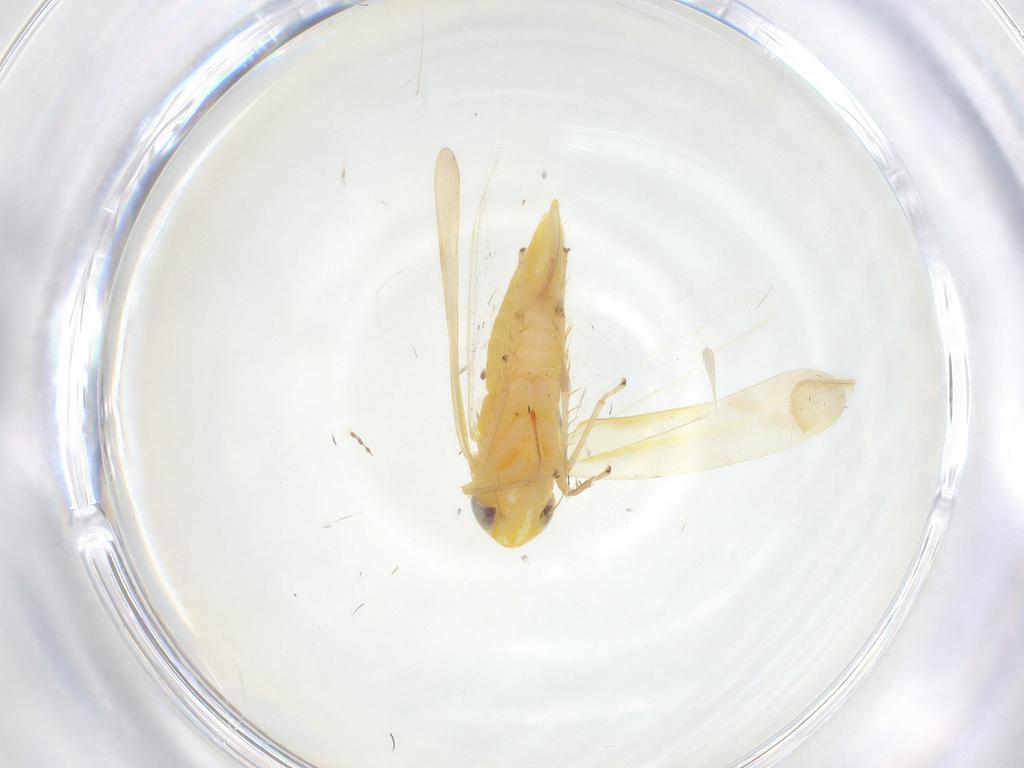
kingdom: Animalia
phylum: Arthropoda
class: Insecta
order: Hemiptera
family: Cicadellidae
